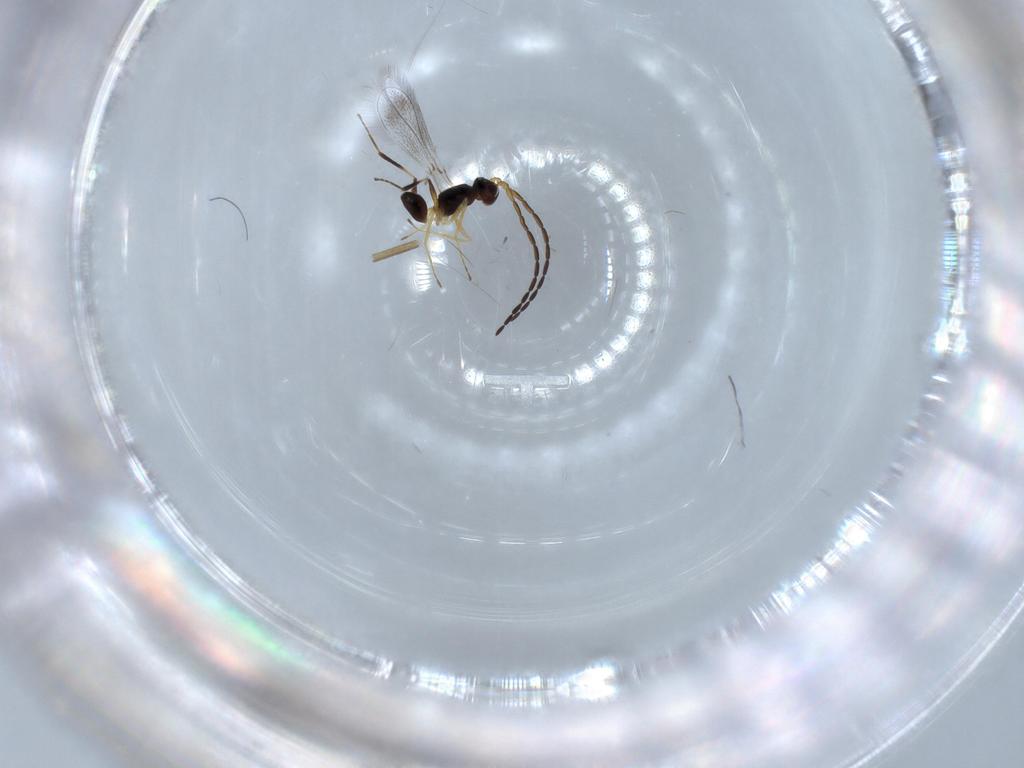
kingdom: Animalia
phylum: Arthropoda
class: Insecta
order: Hymenoptera
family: Mymaridae
